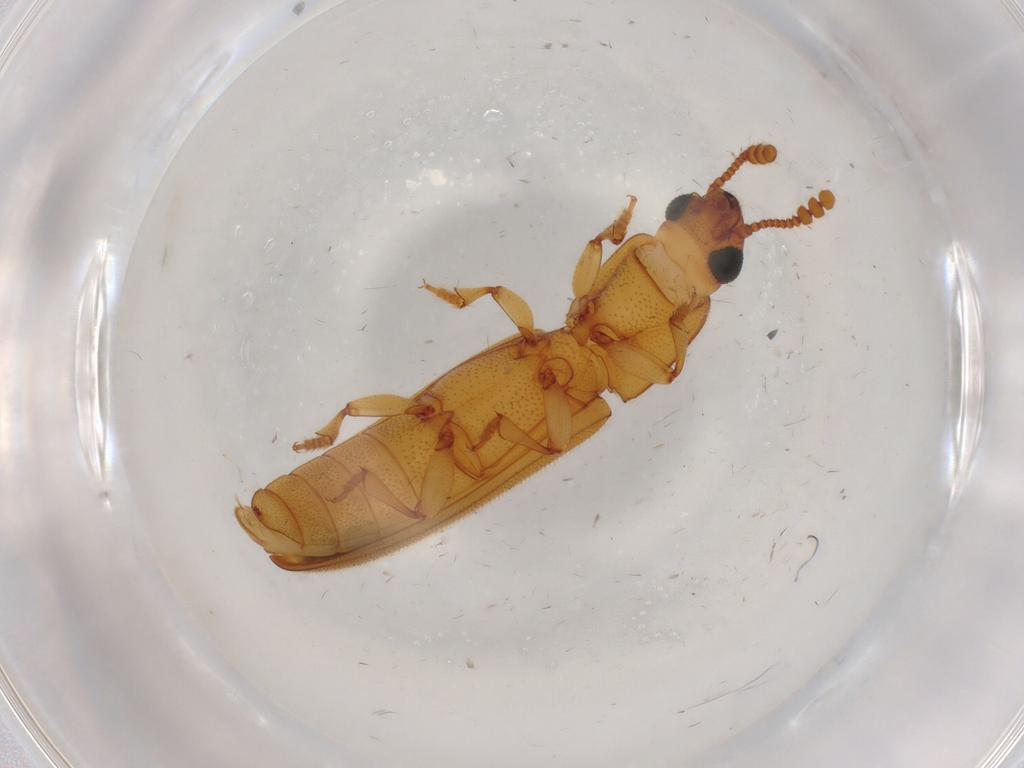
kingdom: Animalia
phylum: Arthropoda
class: Insecta
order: Coleoptera
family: Erotylidae
